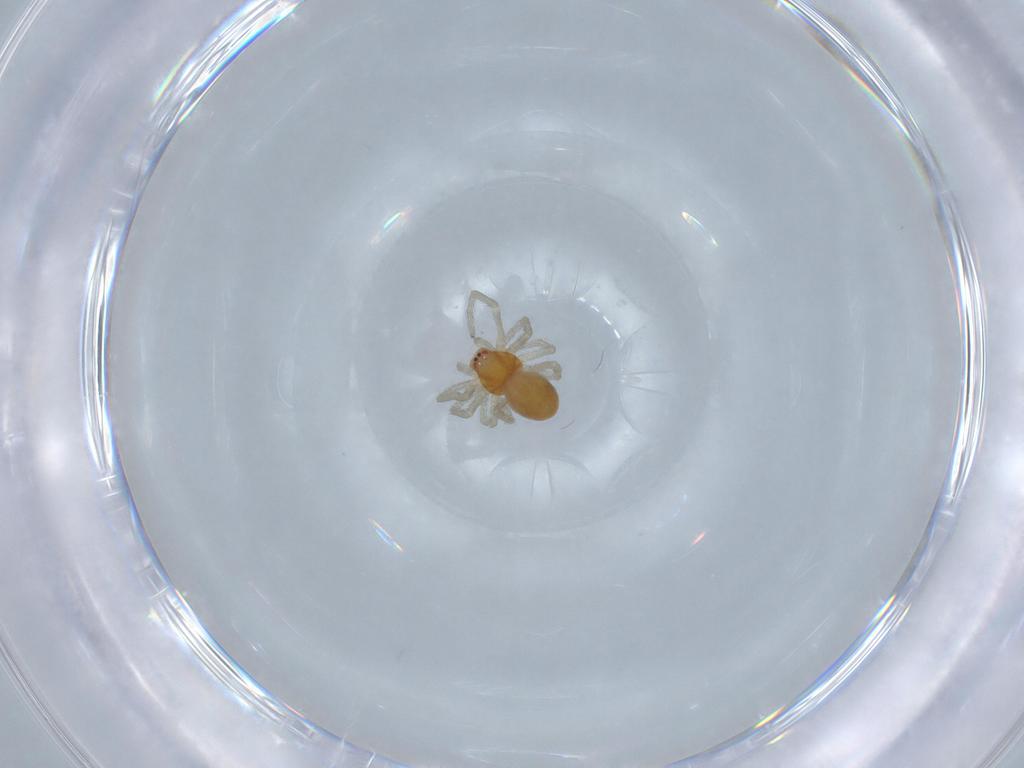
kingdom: Animalia
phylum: Arthropoda
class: Arachnida
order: Araneae
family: Dictynidae
